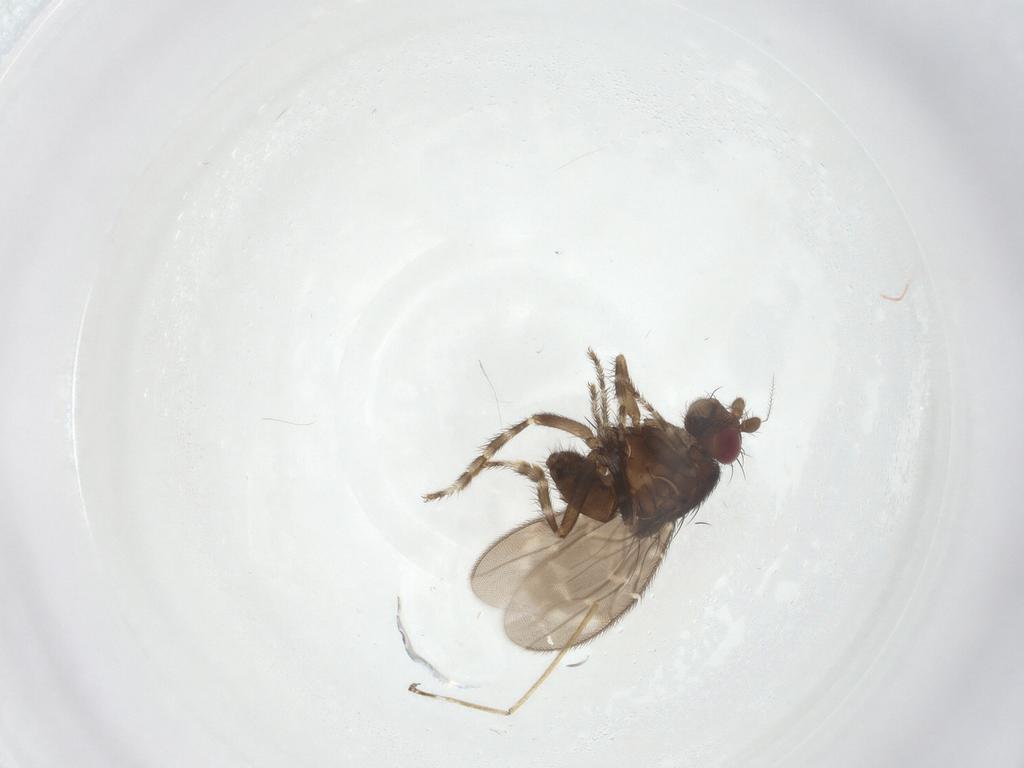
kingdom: Animalia
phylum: Arthropoda
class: Insecta
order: Diptera
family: Sphaeroceridae
